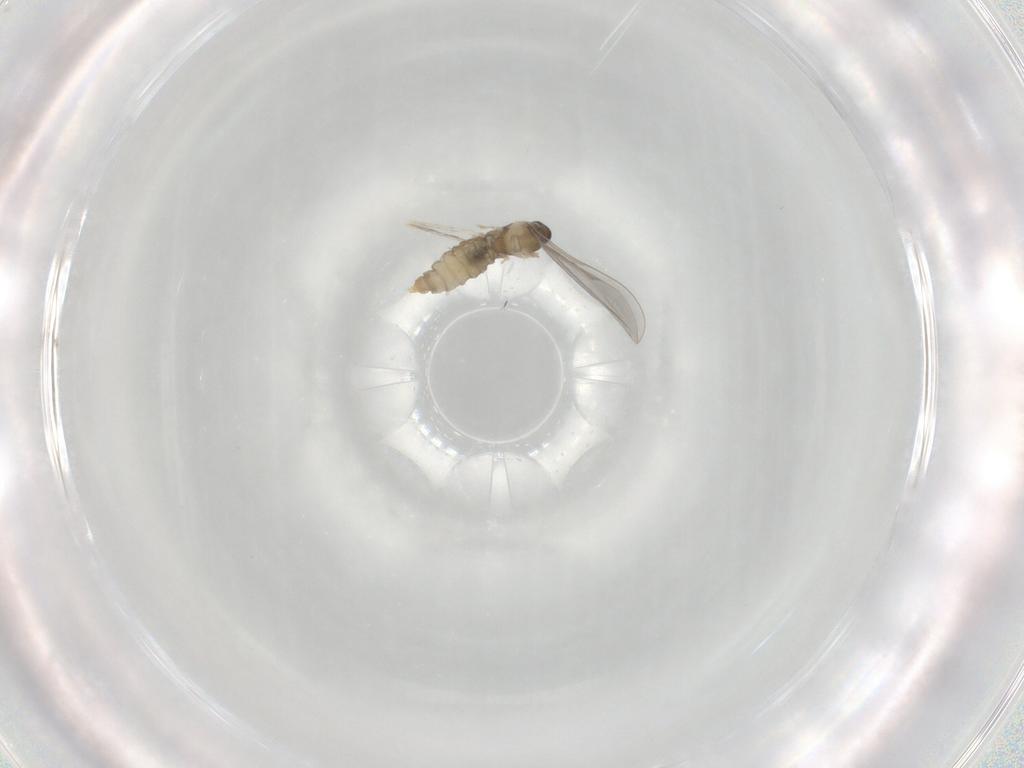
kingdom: Animalia
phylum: Arthropoda
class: Insecta
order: Diptera
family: Cecidomyiidae
